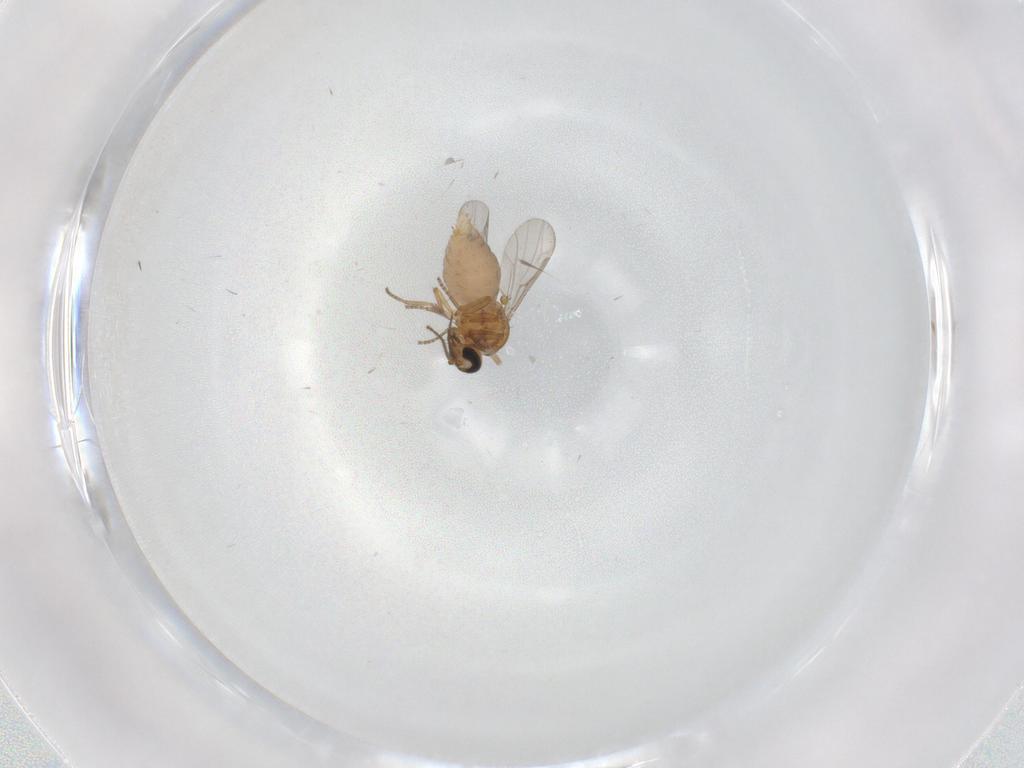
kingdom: Animalia
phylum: Arthropoda
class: Insecta
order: Diptera
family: Ceratopogonidae
